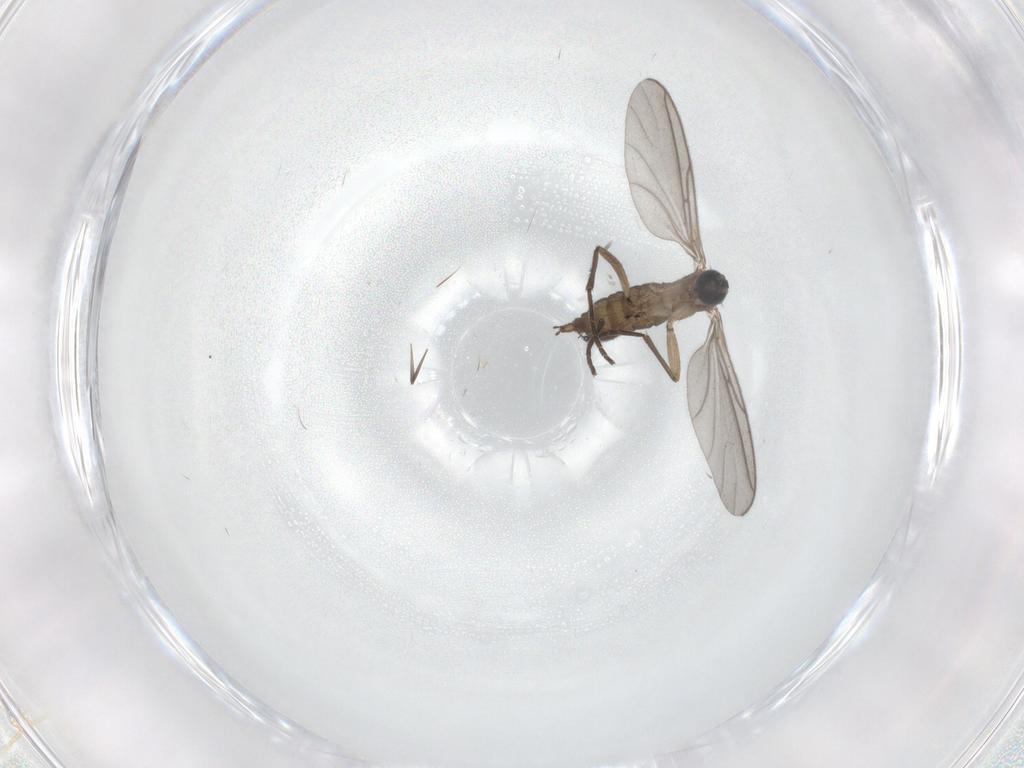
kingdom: Animalia
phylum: Arthropoda
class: Insecta
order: Diptera
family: Sciaridae
